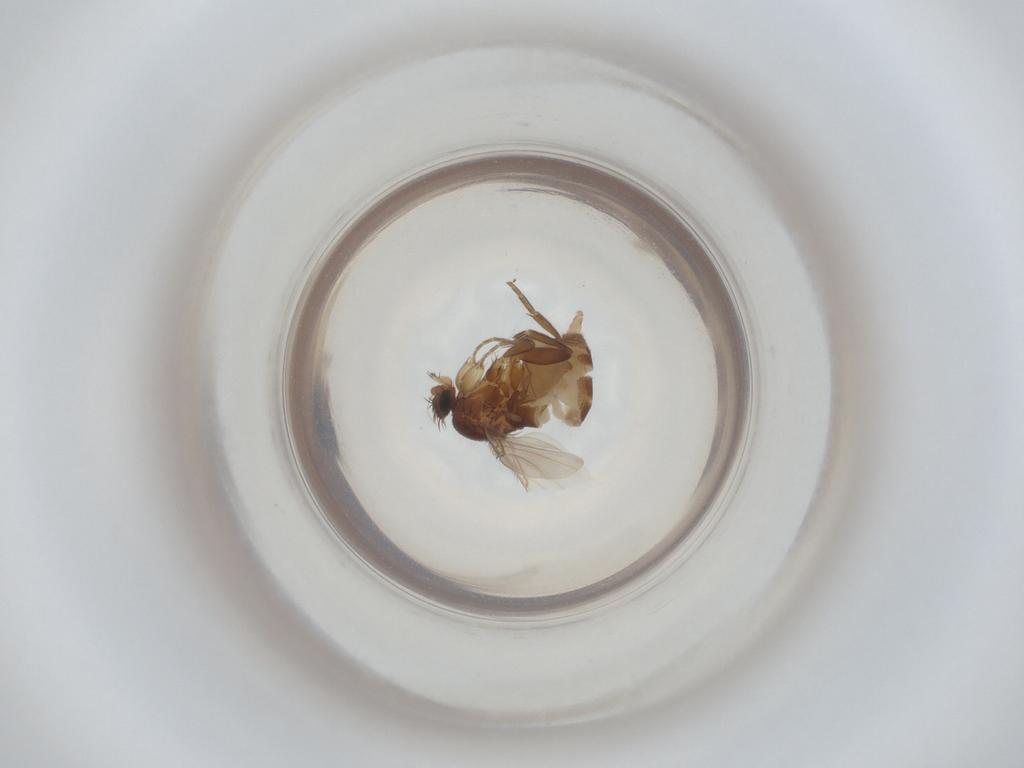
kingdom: Animalia
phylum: Arthropoda
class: Insecta
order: Diptera
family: Phoridae
